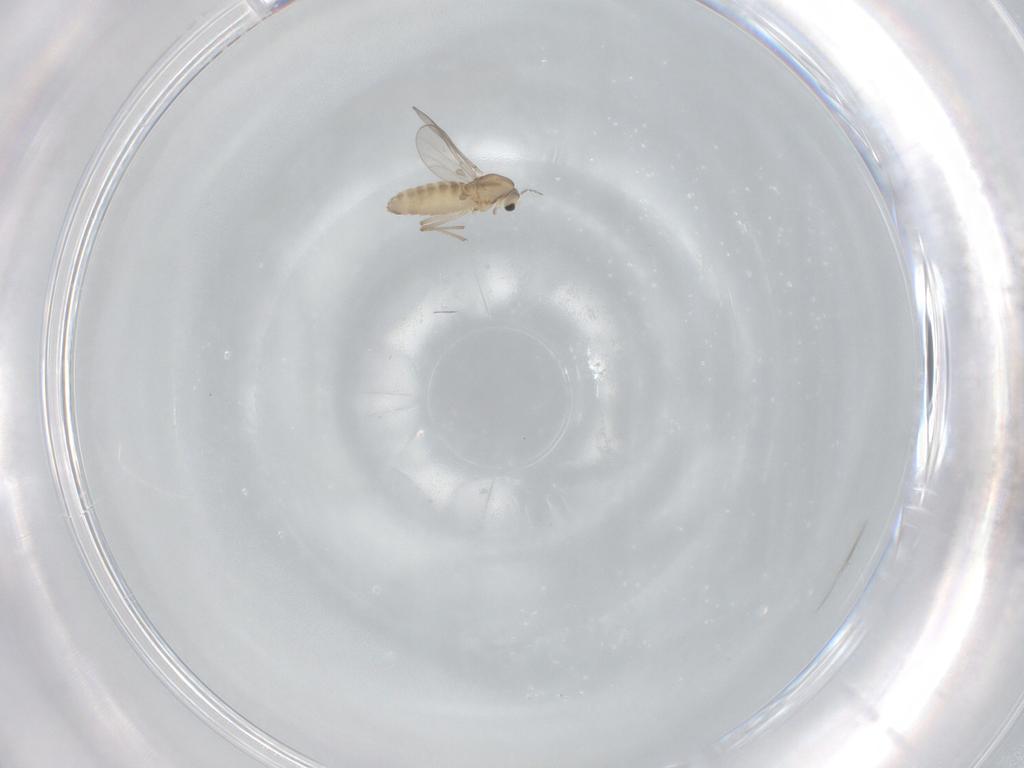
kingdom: Animalia
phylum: Arthropoda
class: Insecta
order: Diptera
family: Chironomidae
